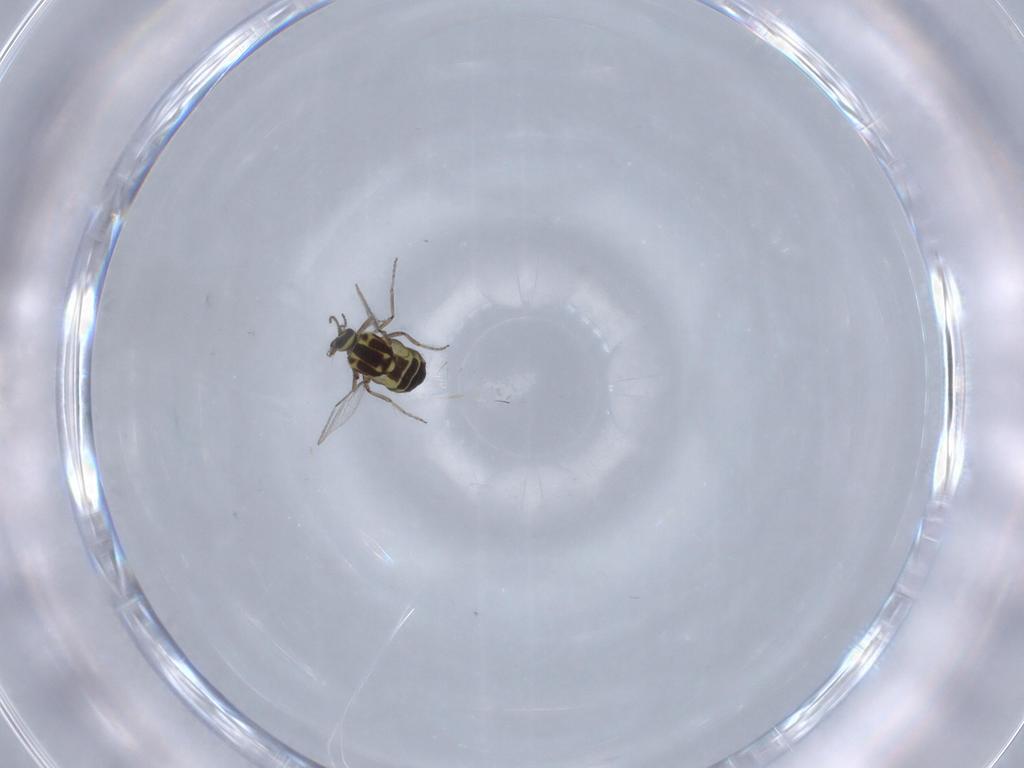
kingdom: Animalia
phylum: Arthropoda
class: Insecta
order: Diptera
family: Ceratopogonidae
